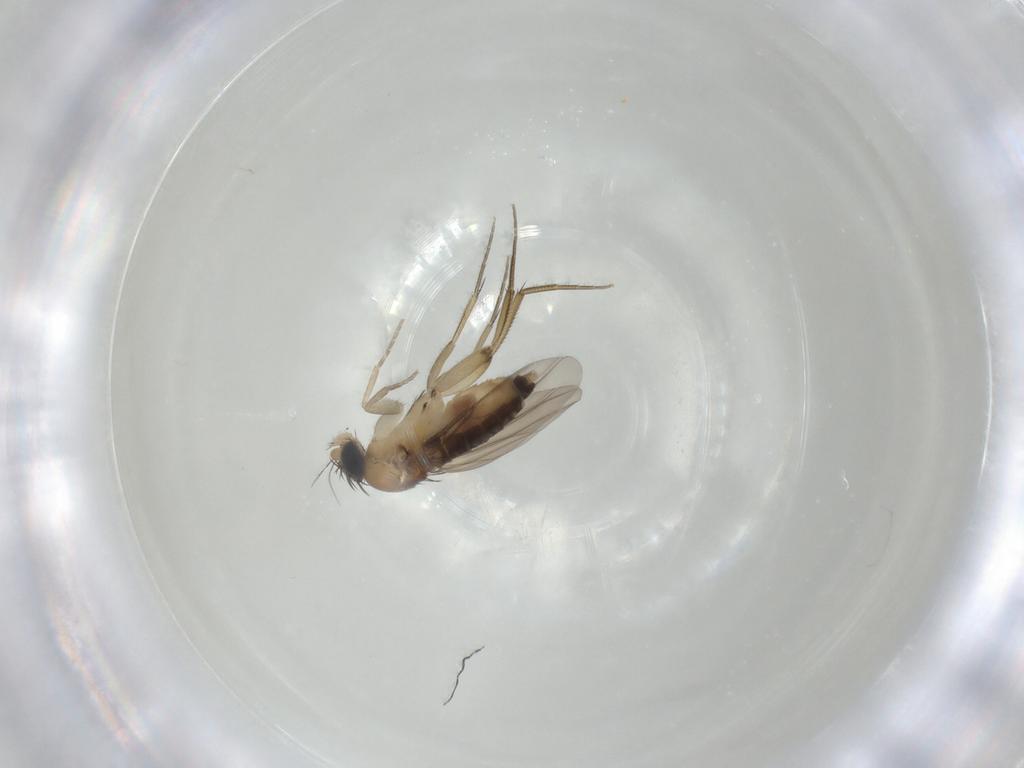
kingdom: Animalia
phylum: Arthropoda
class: Insecta
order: Diptera
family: Phoridae
